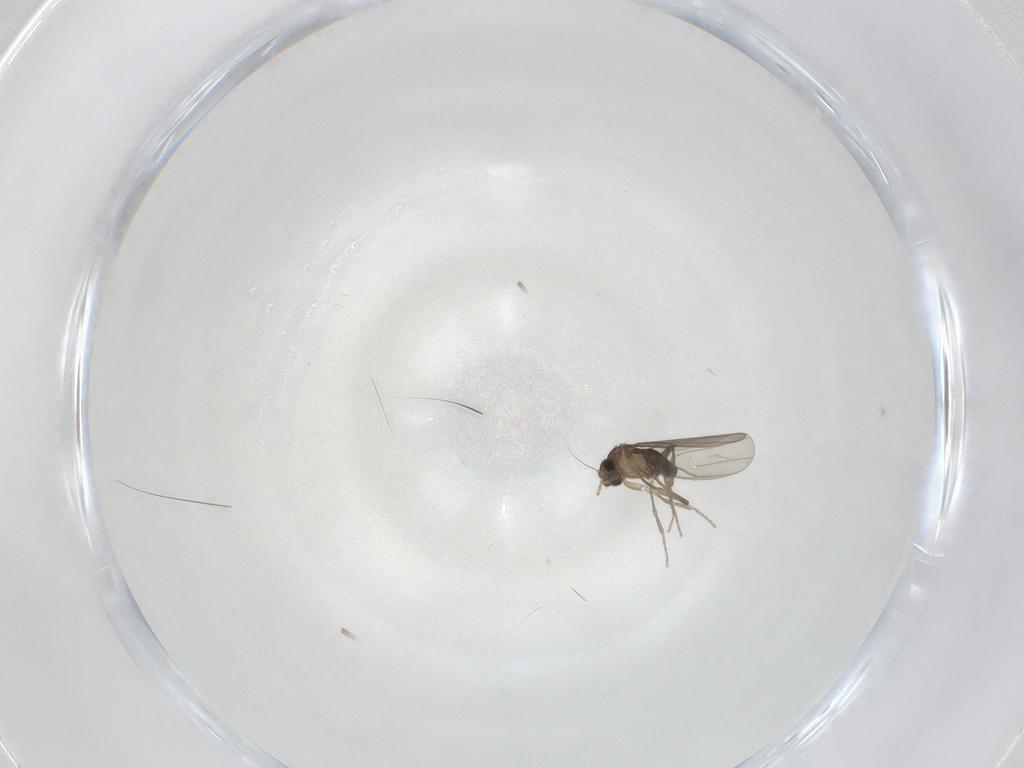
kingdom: Animalia
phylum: Arthropoda
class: Insecta
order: Diptera
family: Phoridae
